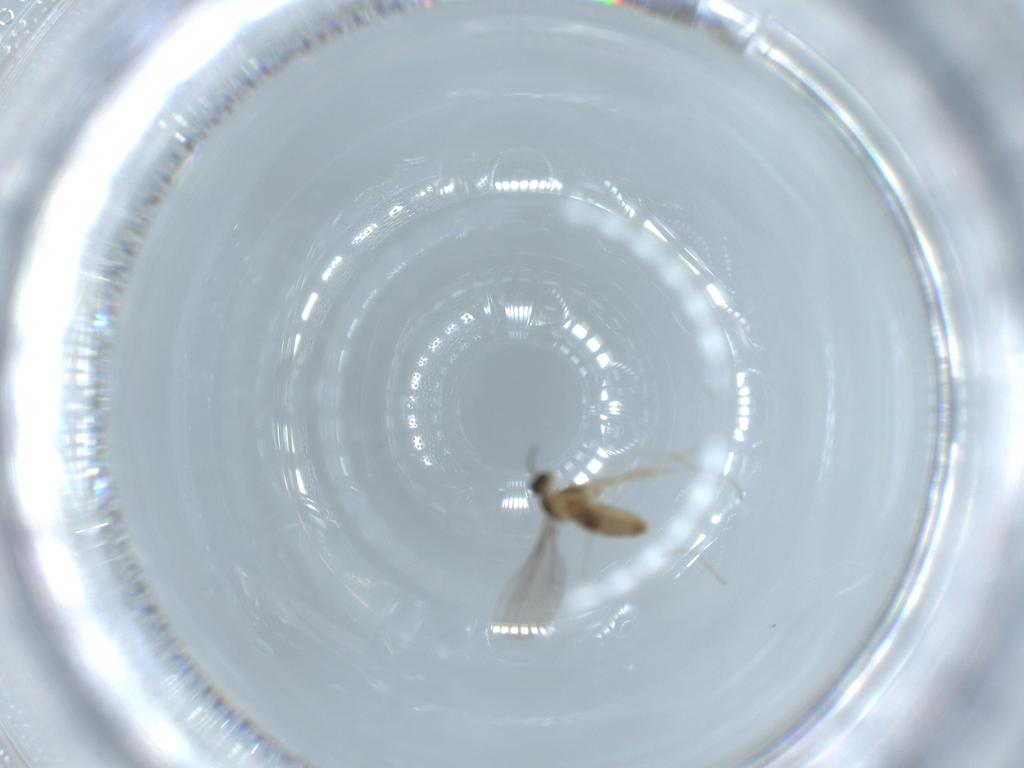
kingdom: Animalia
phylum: Arthropoda
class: Insecta
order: Diptera
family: Cecidomyiidae
